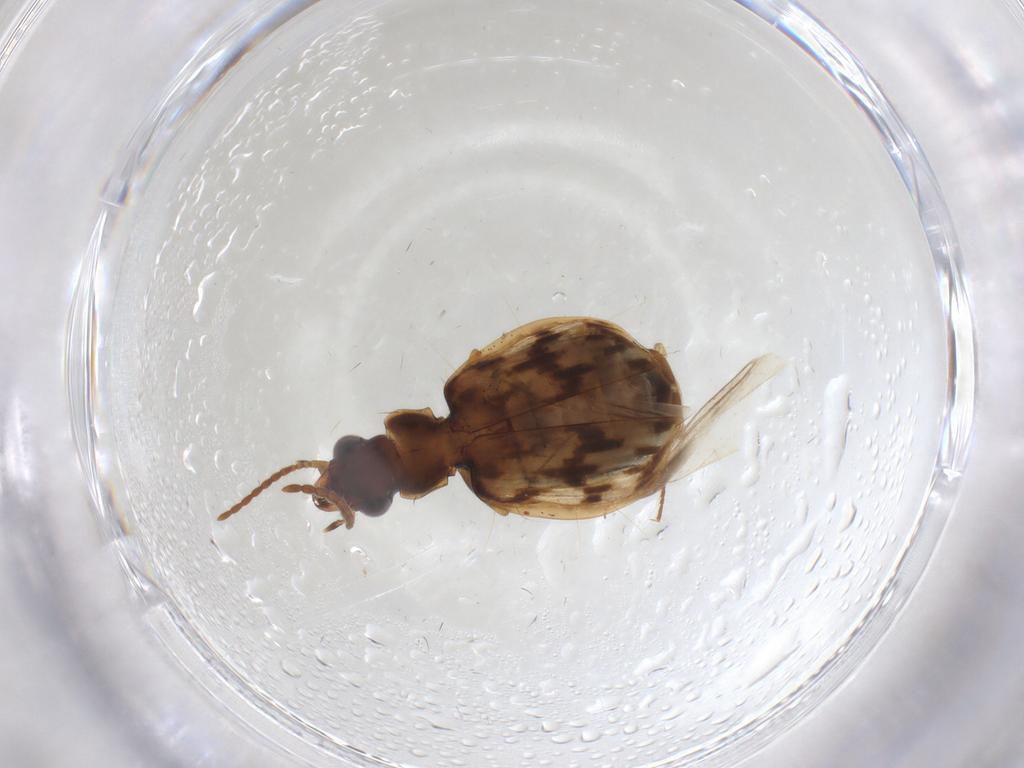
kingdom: Animalia
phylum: Arthropoda
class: Insecta
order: Coleoptera
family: Carabidae
